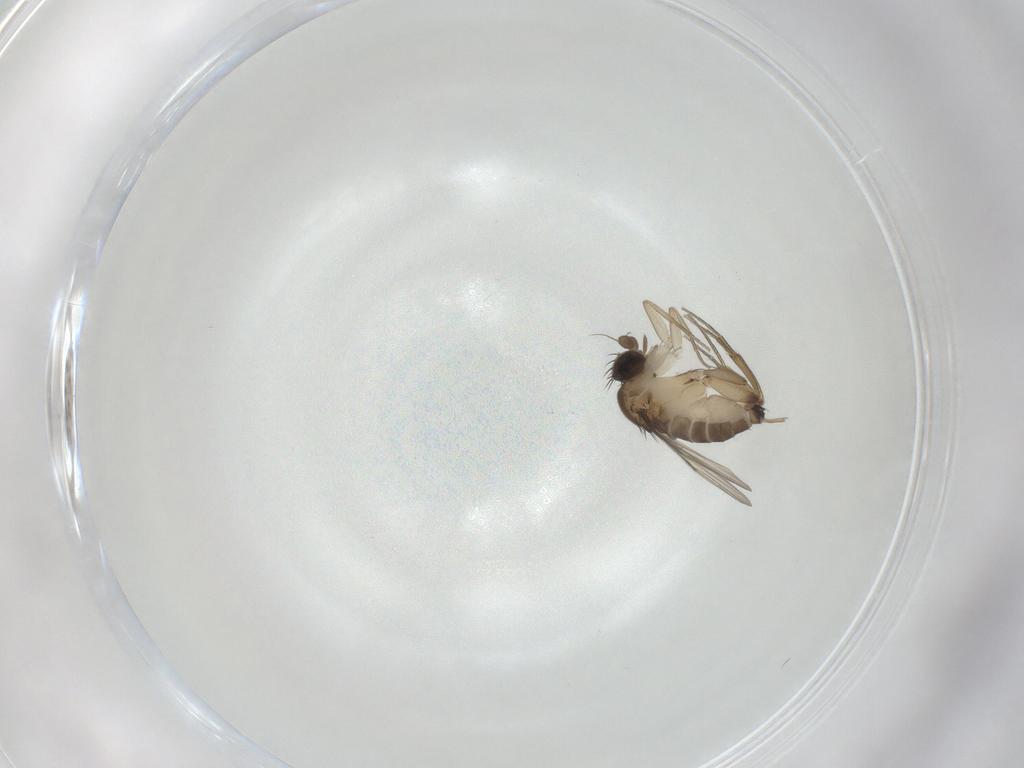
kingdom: Animalia
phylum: Arthropoda
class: Insecta
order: Diptera
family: Phoridae
